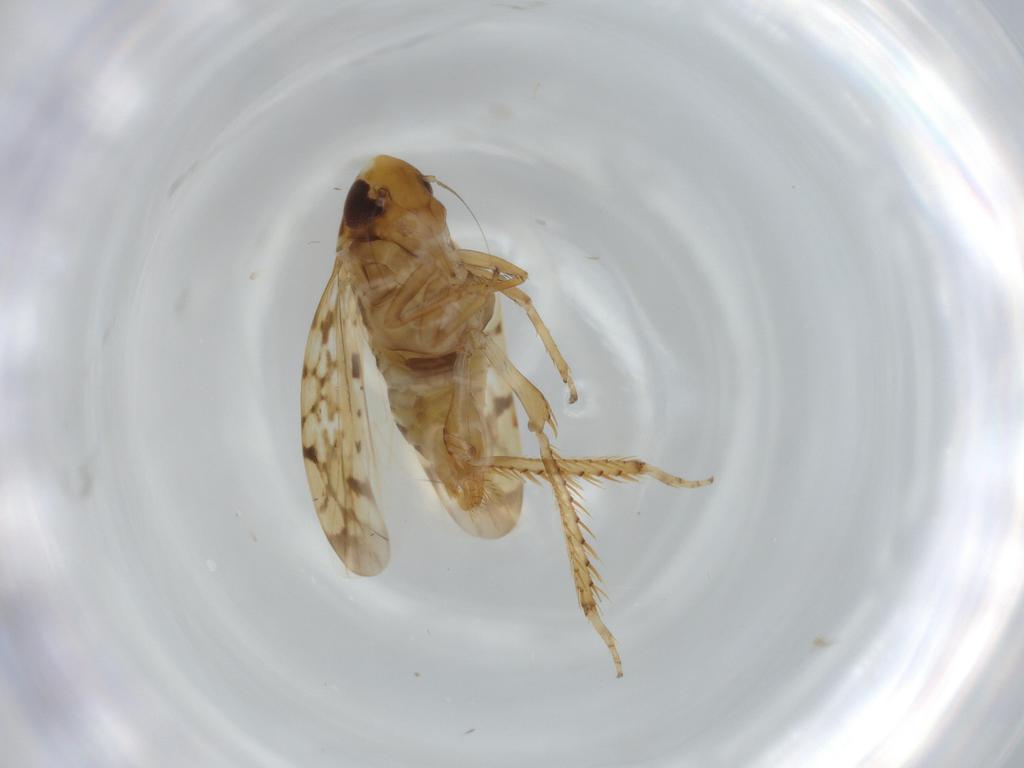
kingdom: Animalia
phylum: Arthropoda
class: Insecta
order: Hemiptera
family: Cicadellidae
